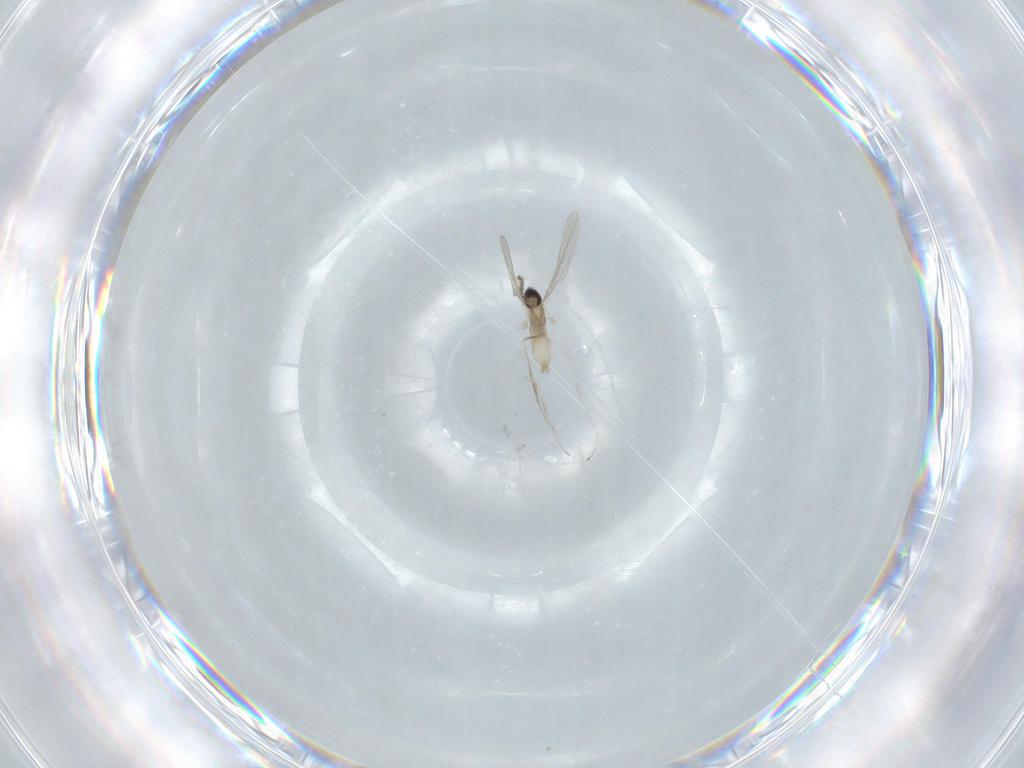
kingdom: Animalia
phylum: Arthropoda
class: Insecta
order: Diptera
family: Cecidomyiidae
